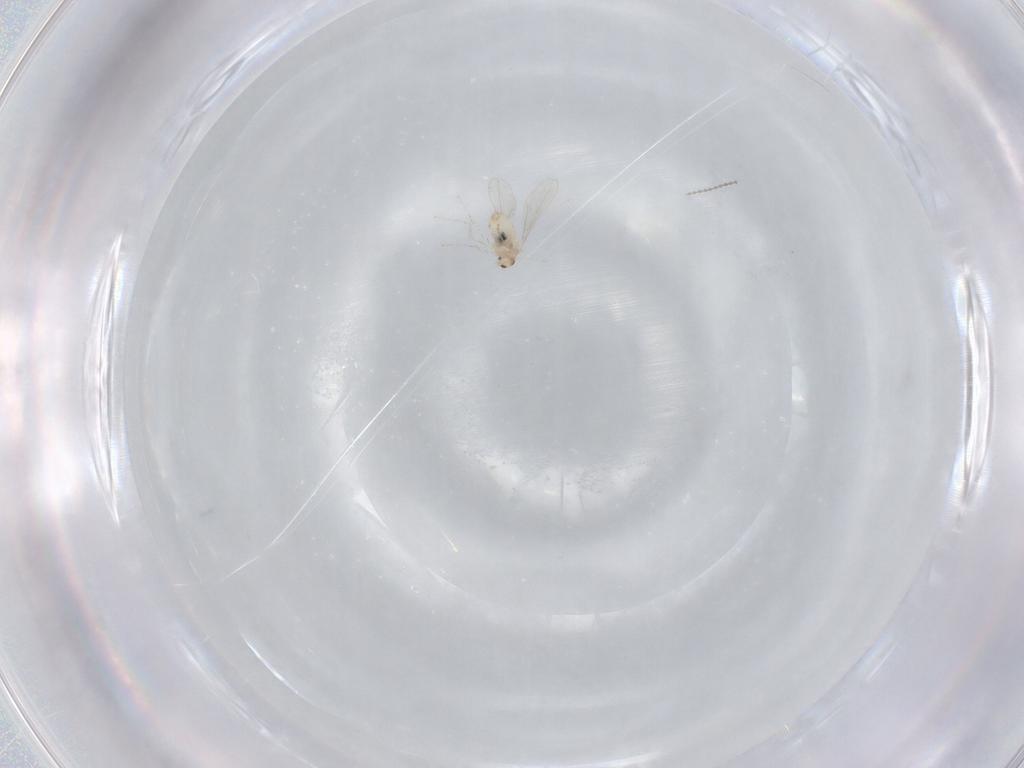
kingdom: Animalia
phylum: Arthropoda
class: Insecta
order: Diptera
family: Cecidomyiidae
